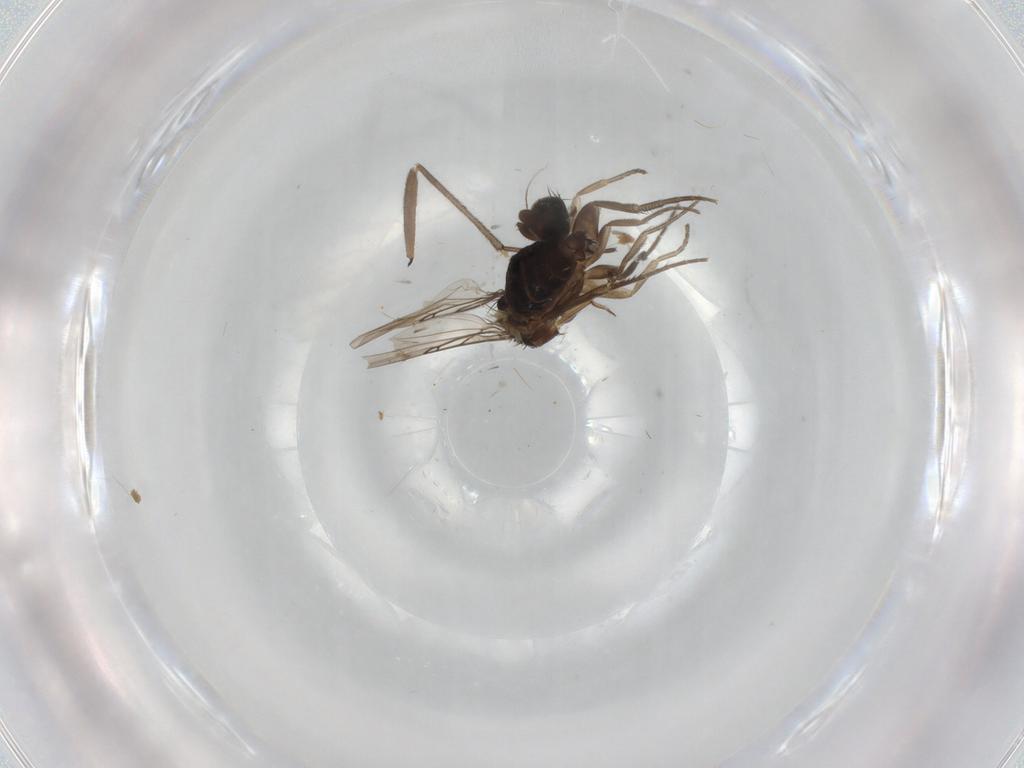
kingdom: Animalia
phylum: Arthropoda
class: Insecta
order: Diptera
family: Phoridae
